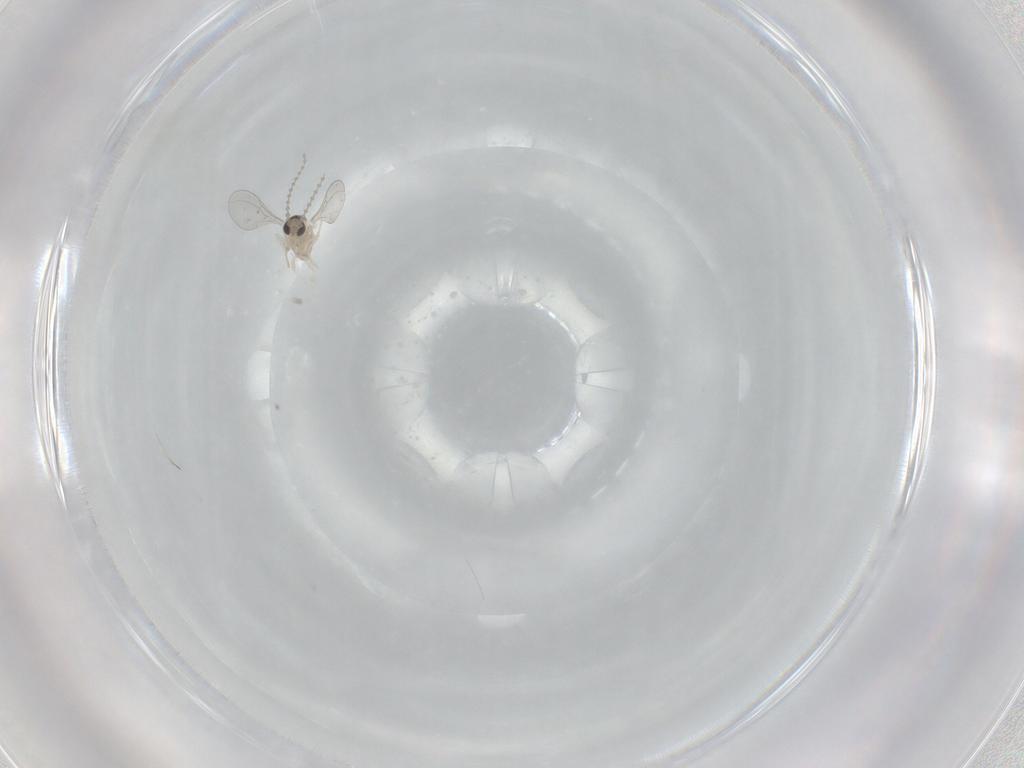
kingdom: Animalia
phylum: Arthropoda
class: Insecta
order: Diptera
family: Cecidomyiidae
